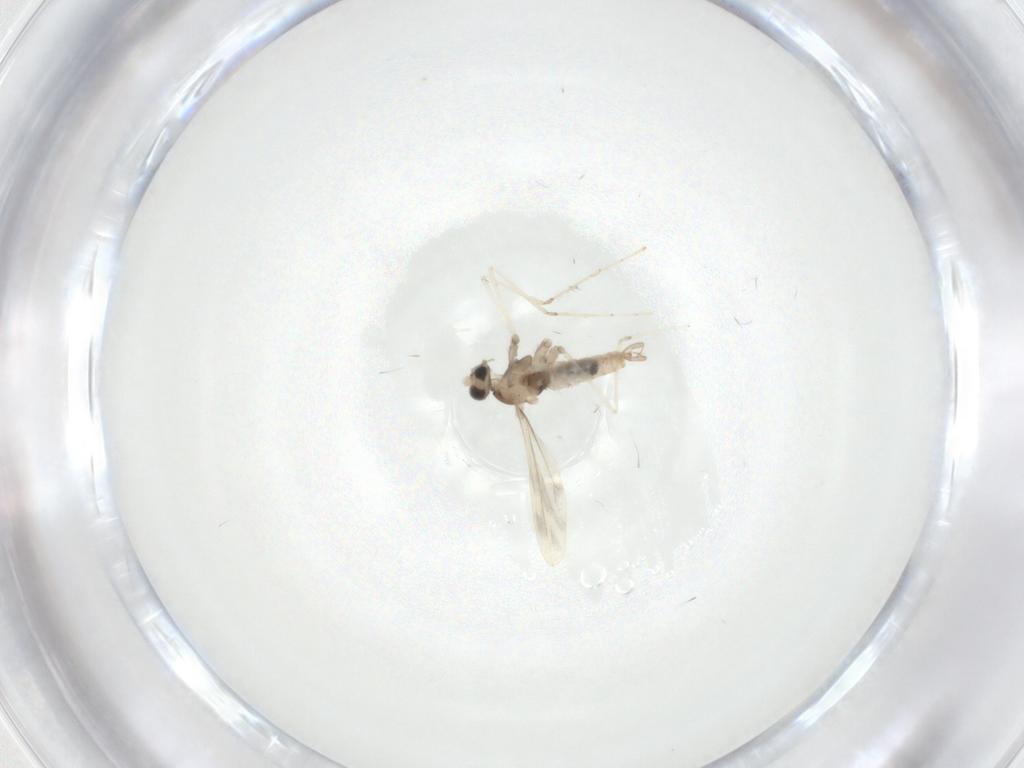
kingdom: Animalia
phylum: Arthropoda
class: Insecta
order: Diptera
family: Cecidomyiidae
